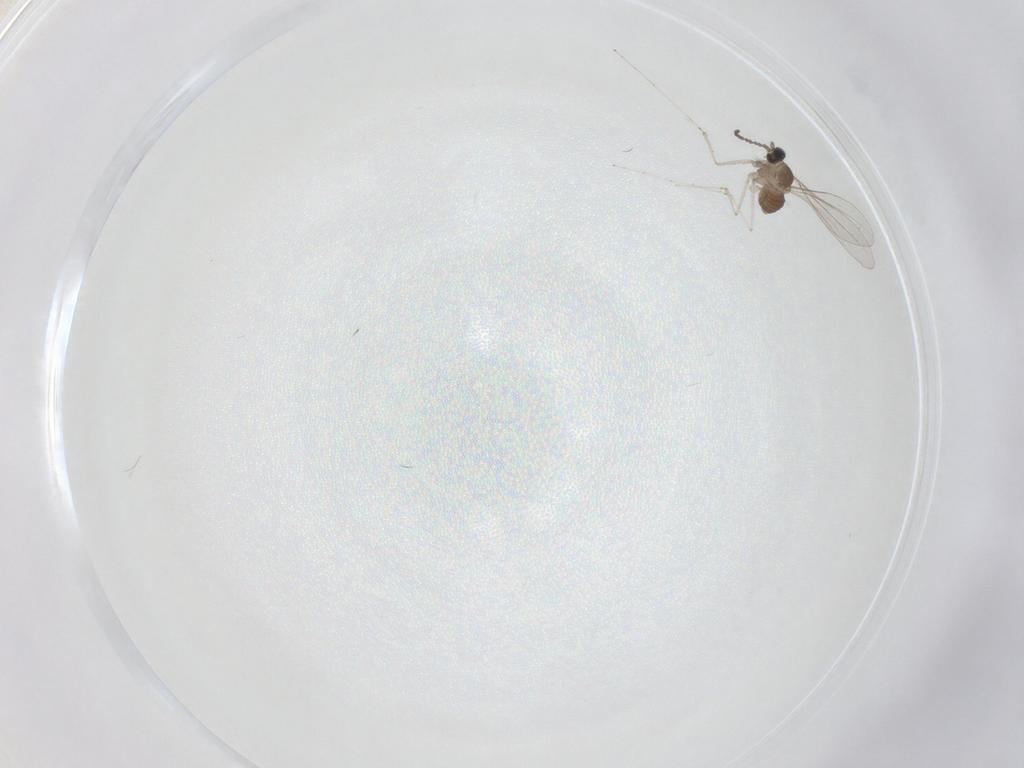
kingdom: Animalia
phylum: Arthropoda
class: Insecta
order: Diptera
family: Cecidomyiidae
